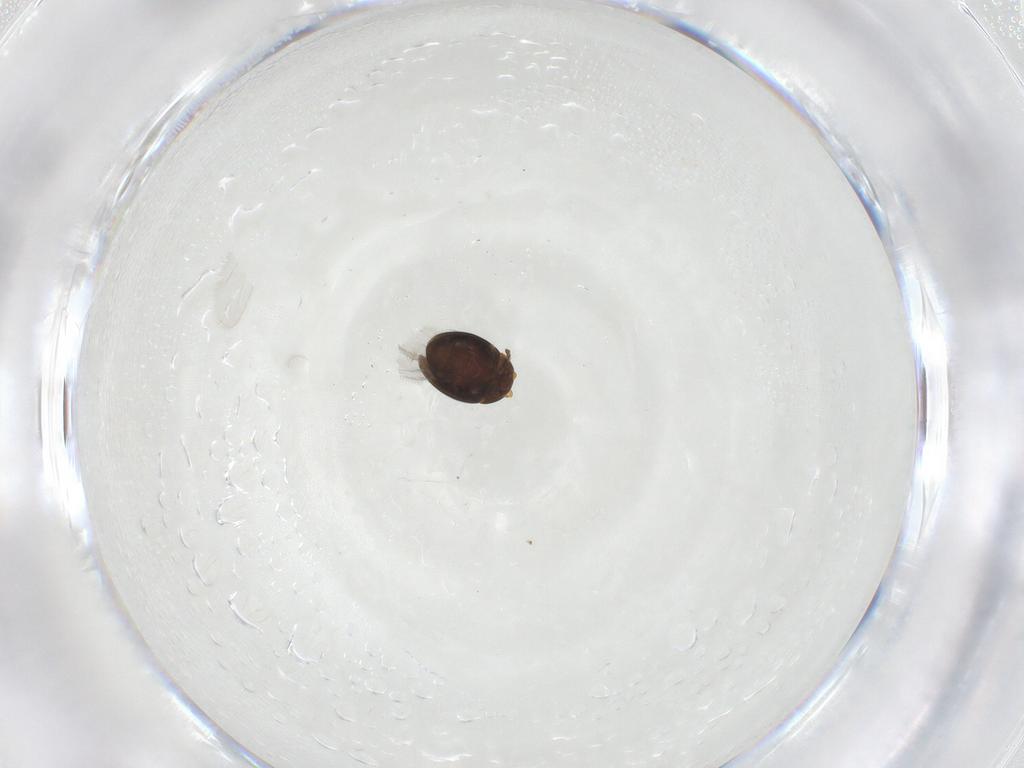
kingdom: Animalia
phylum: Arthropoda
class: Insecta
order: Coleoptera
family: Corylophidae
